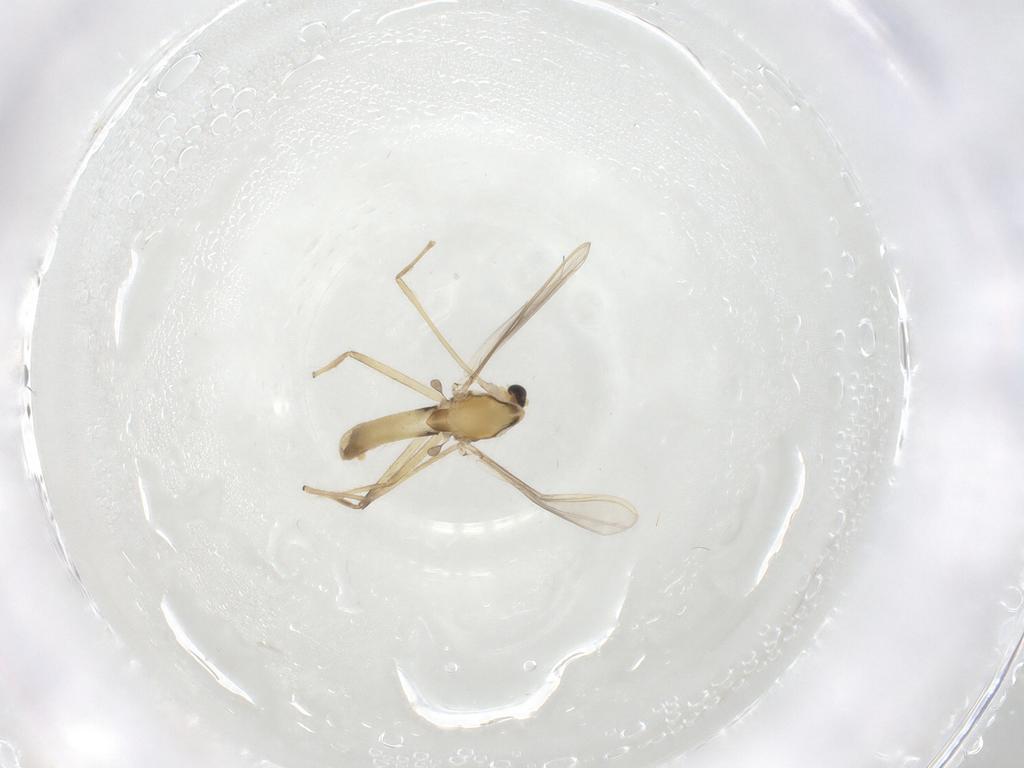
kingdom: Animalia
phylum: Arthropoda
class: Insecta
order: Diptera
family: Chironomidae
